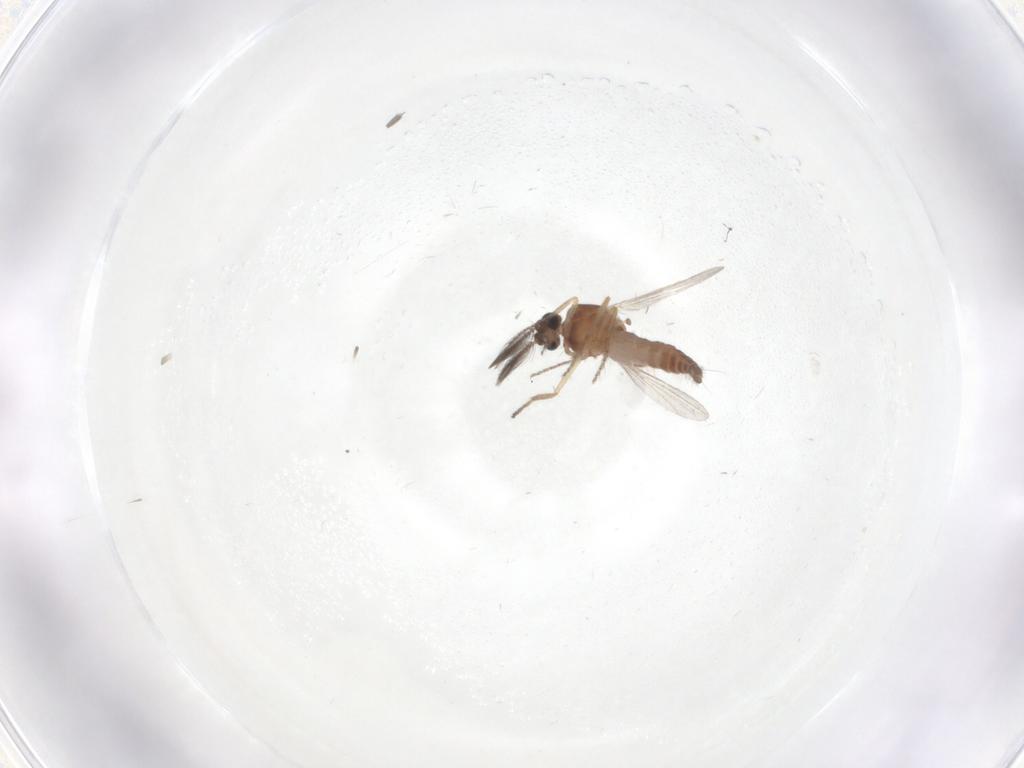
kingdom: Animalia
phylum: Arthropoda
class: Insecta
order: Diptera
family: Ceratopogonidae
